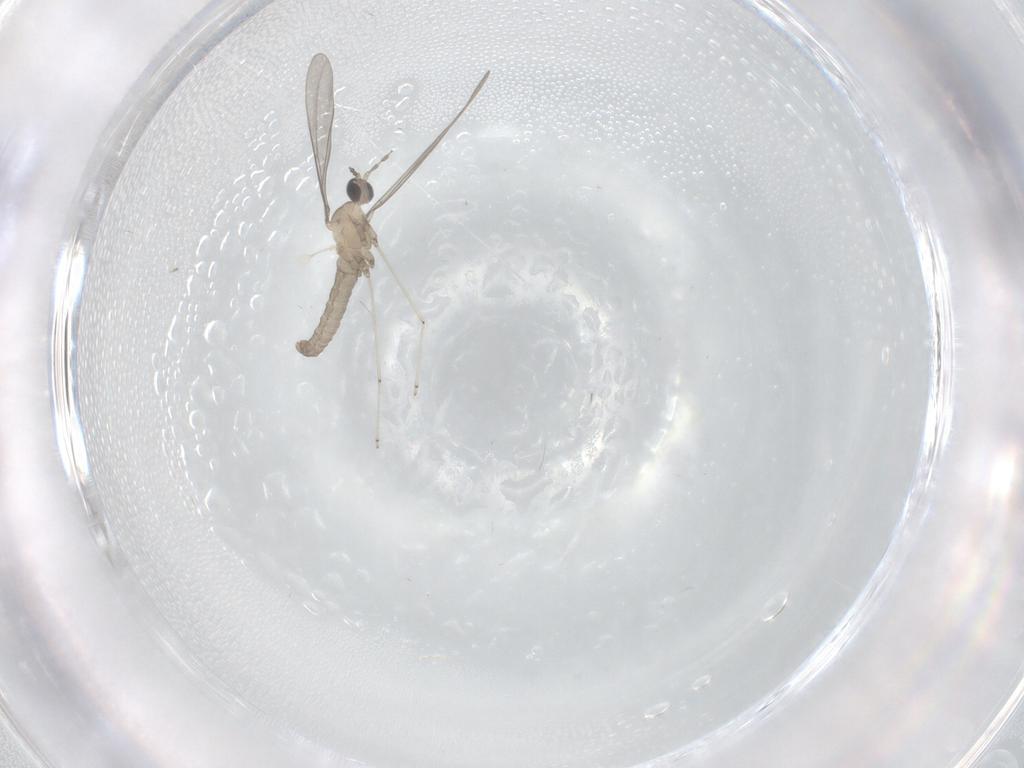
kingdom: Animalia
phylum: Arthropoda
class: Insecta
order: Diptera
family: Cecidomyiidae
